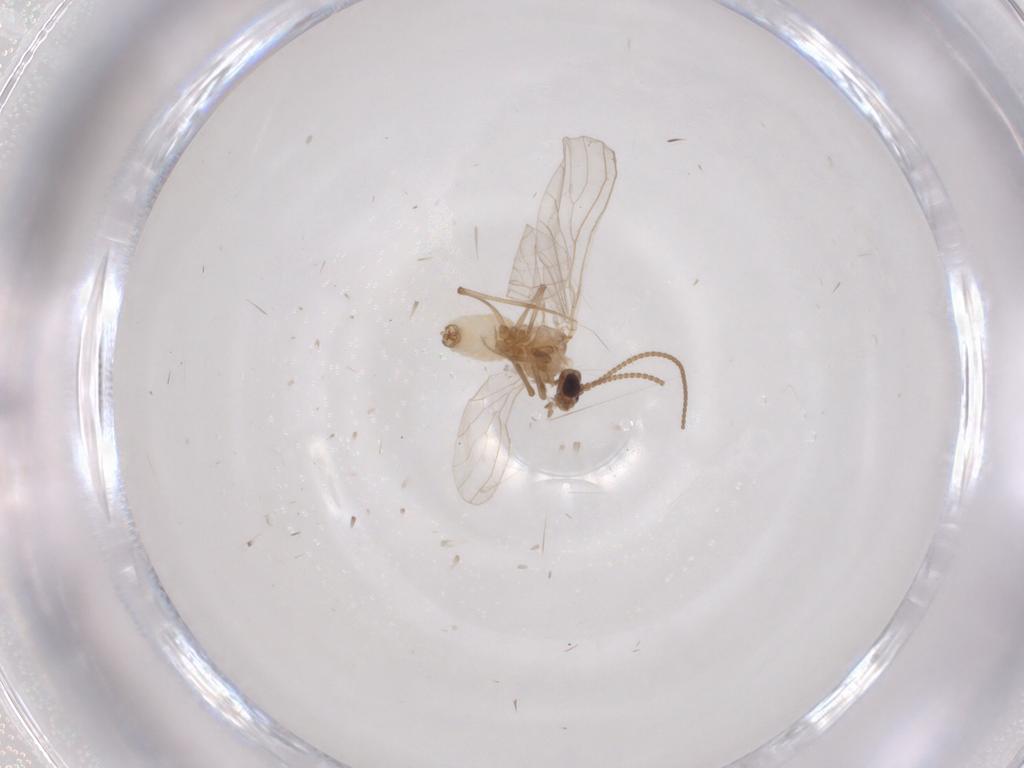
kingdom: Animalia
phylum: Arthropoda
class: Insecta
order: Neuroptera
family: Coniopterygidae
